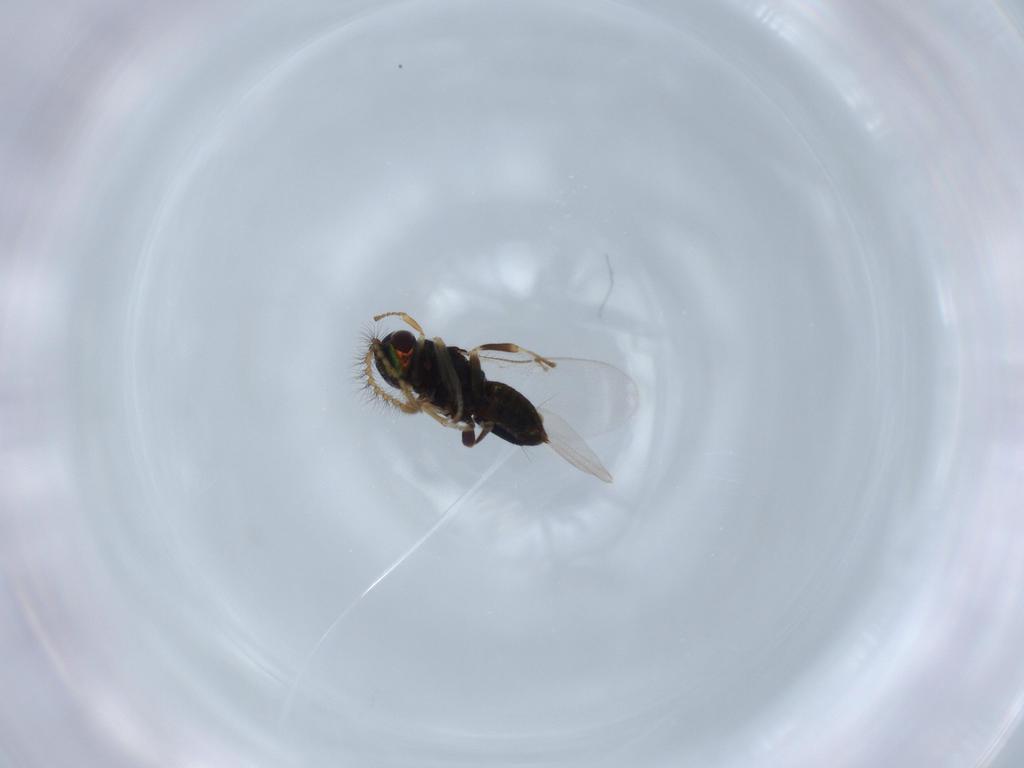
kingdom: Animalia
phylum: Arthropoda
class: Insecta
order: Hymenoptera
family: Encyrtidae
